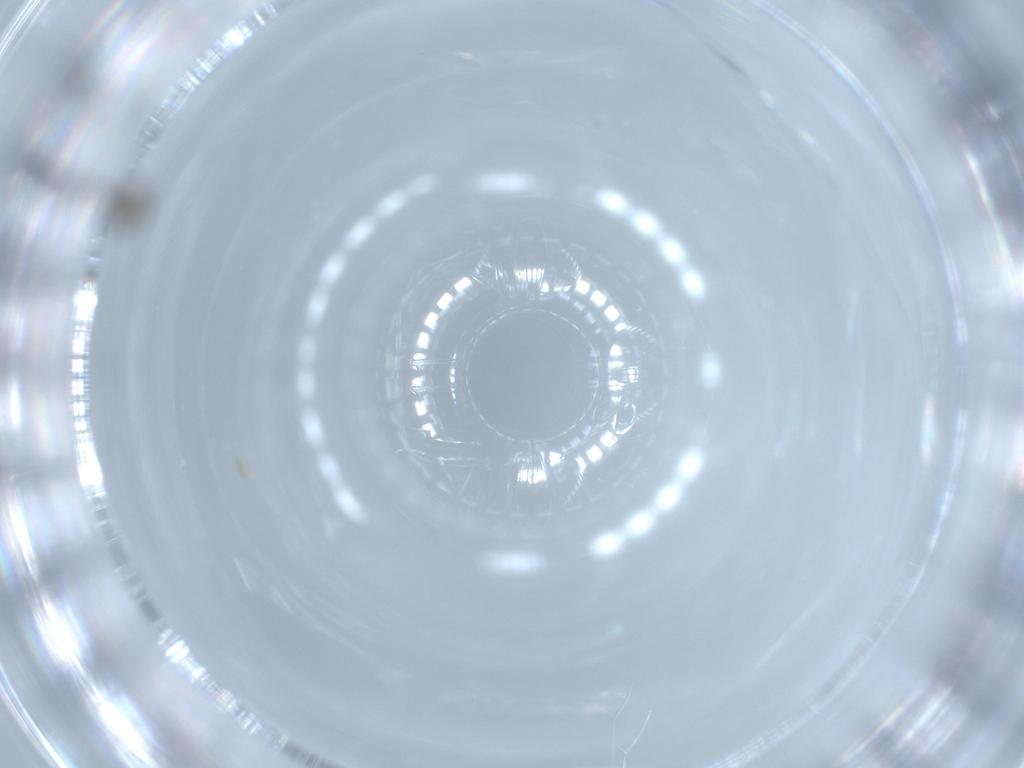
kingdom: Animalia
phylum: Arthropoda
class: Insecta
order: Diptera
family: Cecidomyiidae
